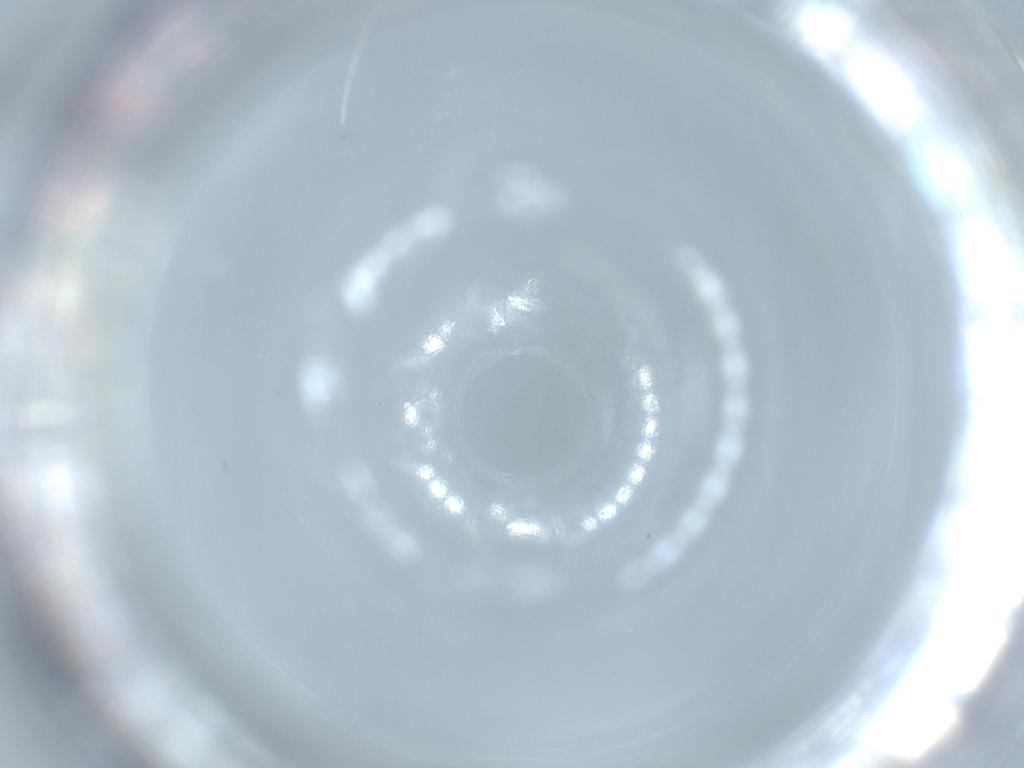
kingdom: Animalia
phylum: Arthropoda
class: Insecta
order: Hymenoptera
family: Diapriidae
